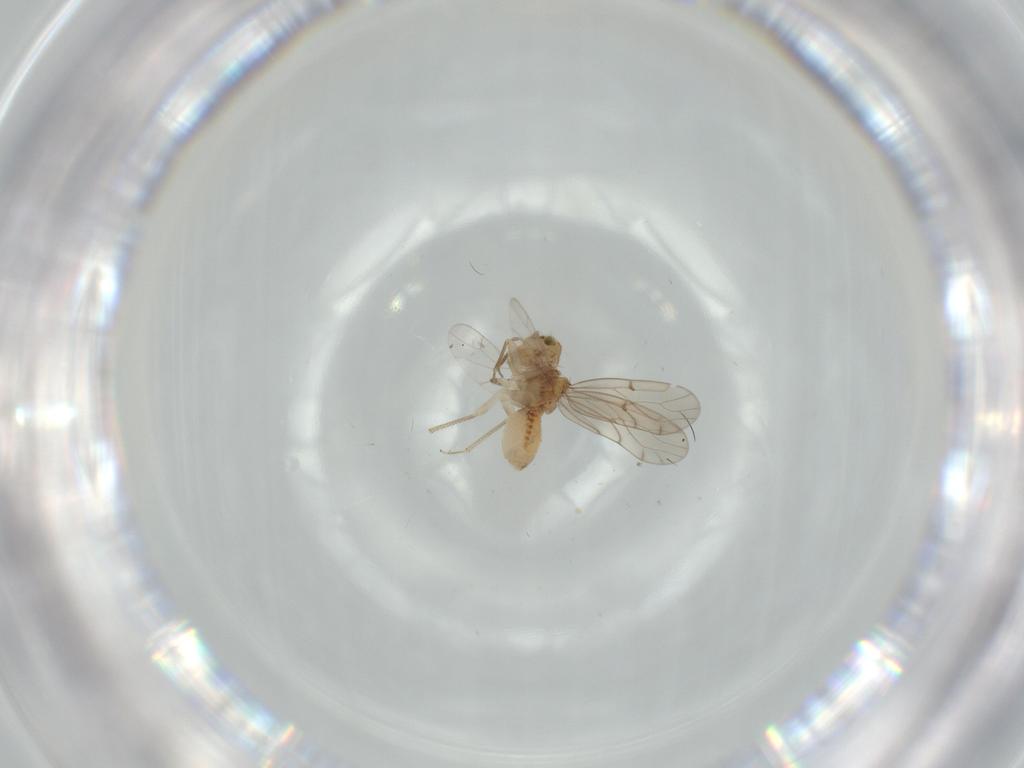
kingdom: Animalia
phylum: Arthropoda
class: Insecta
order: Psocodea
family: Ectopsocidae
